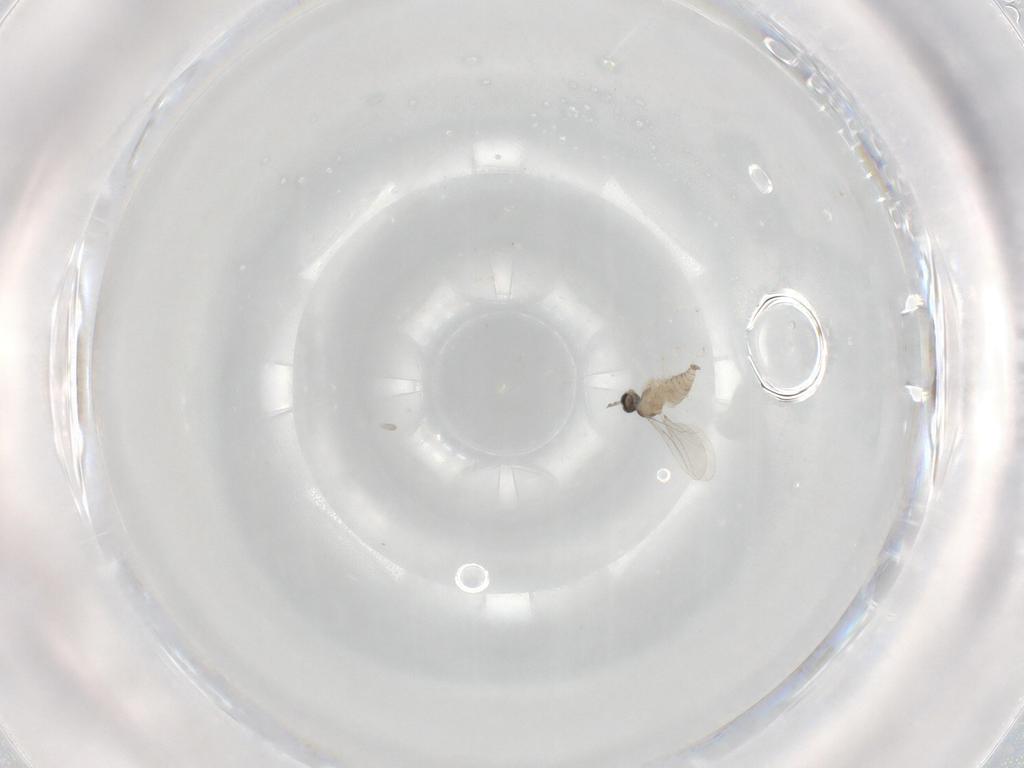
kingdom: Animalia
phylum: Arthropoda
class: Insecta
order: Diptera
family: Cecidomyiidae
